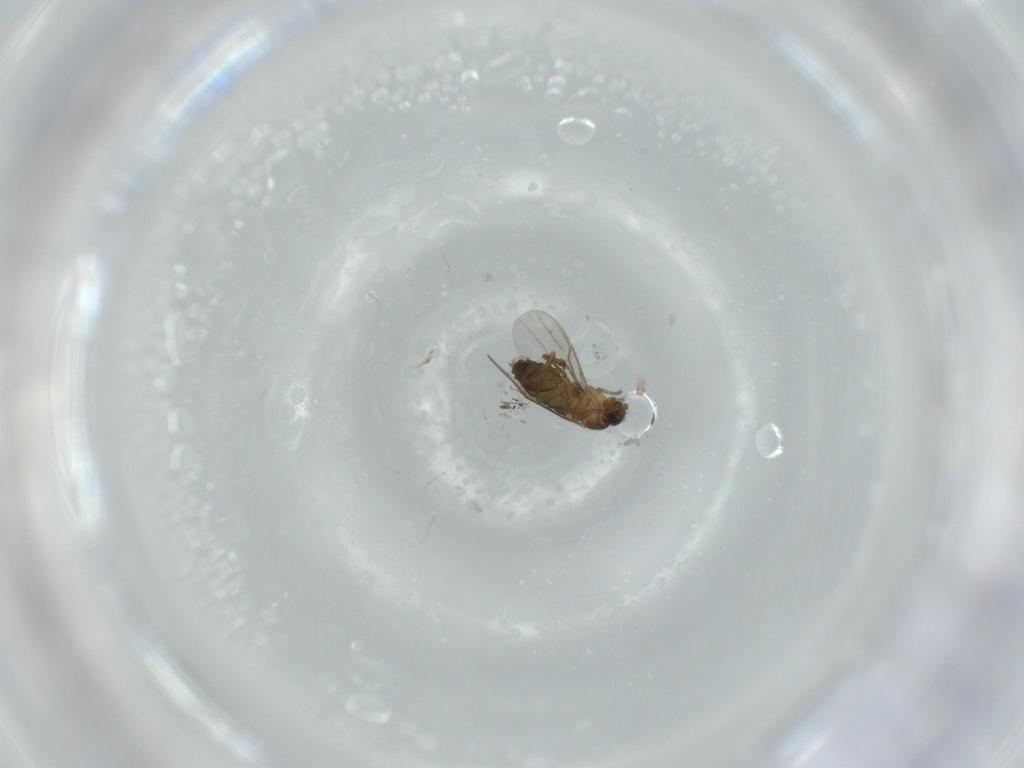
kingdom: Animalia
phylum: Arthropoda
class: Insecta
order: Diptera
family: Phoridae
